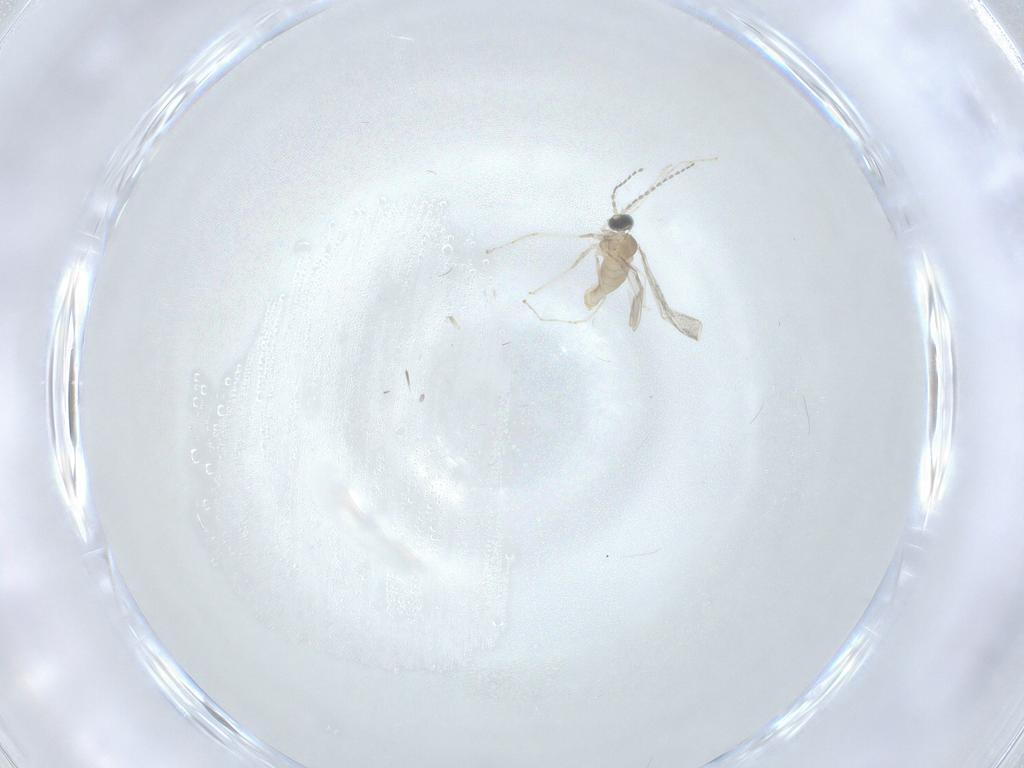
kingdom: Animalia
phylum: Arthropoda
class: Insecta
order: Diptera
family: Cecidomyiidae
